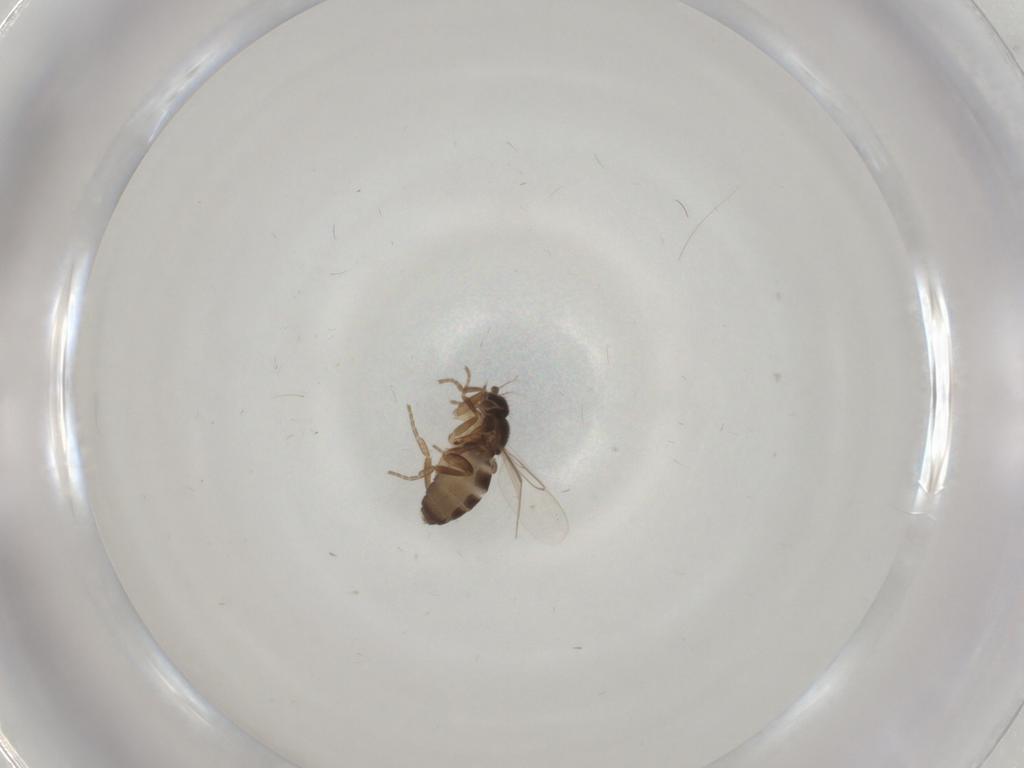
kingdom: Animalia
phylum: Arthropoda
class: Insecta
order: Diptera
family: Phoridae
